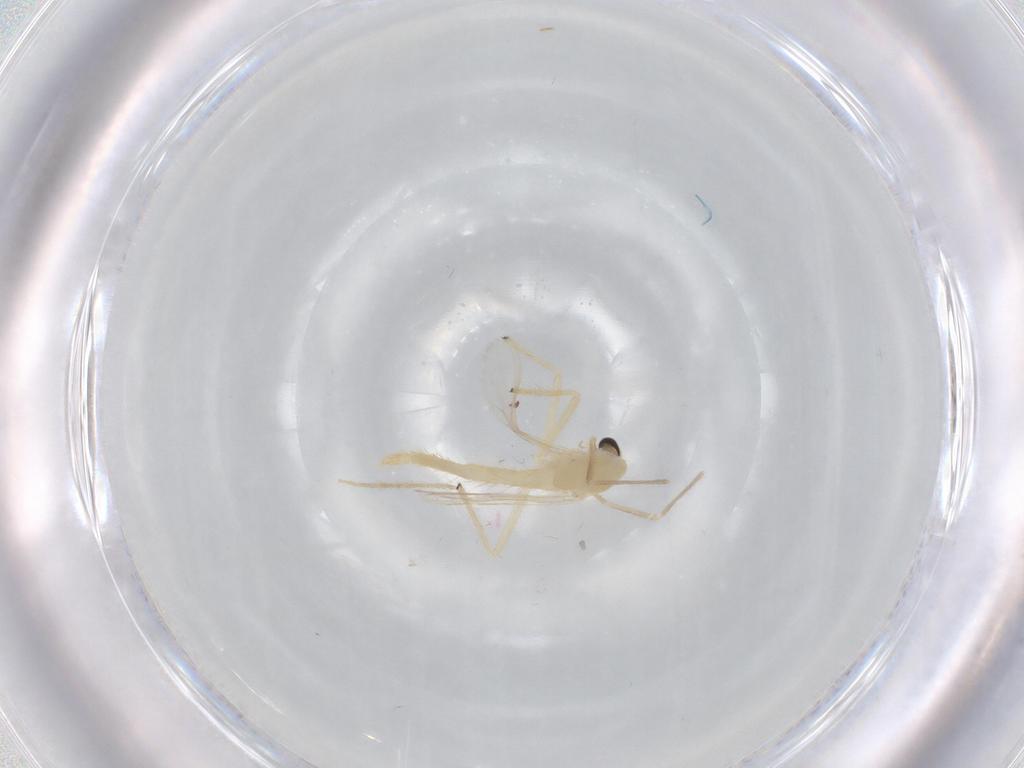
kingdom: Animalia
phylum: Arthropoda
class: Insecta
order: Diptera
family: Chironomidae
